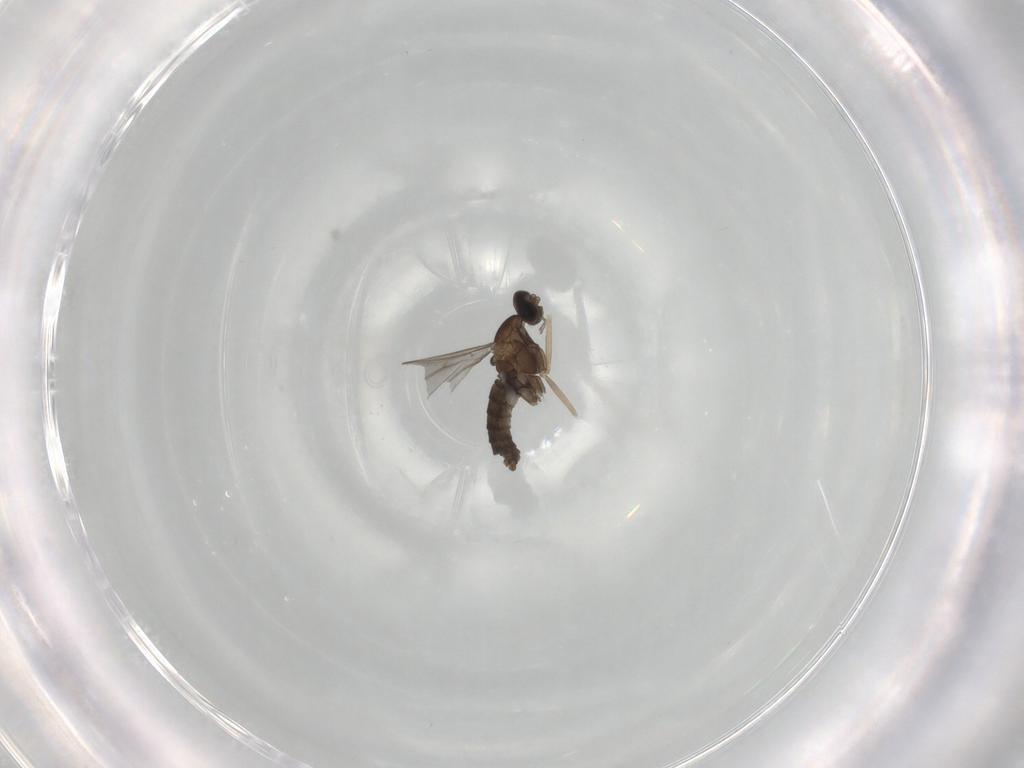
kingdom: Animalia
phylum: Arthropoda
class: Insecta
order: Diptera
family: Cecidomyiidae
